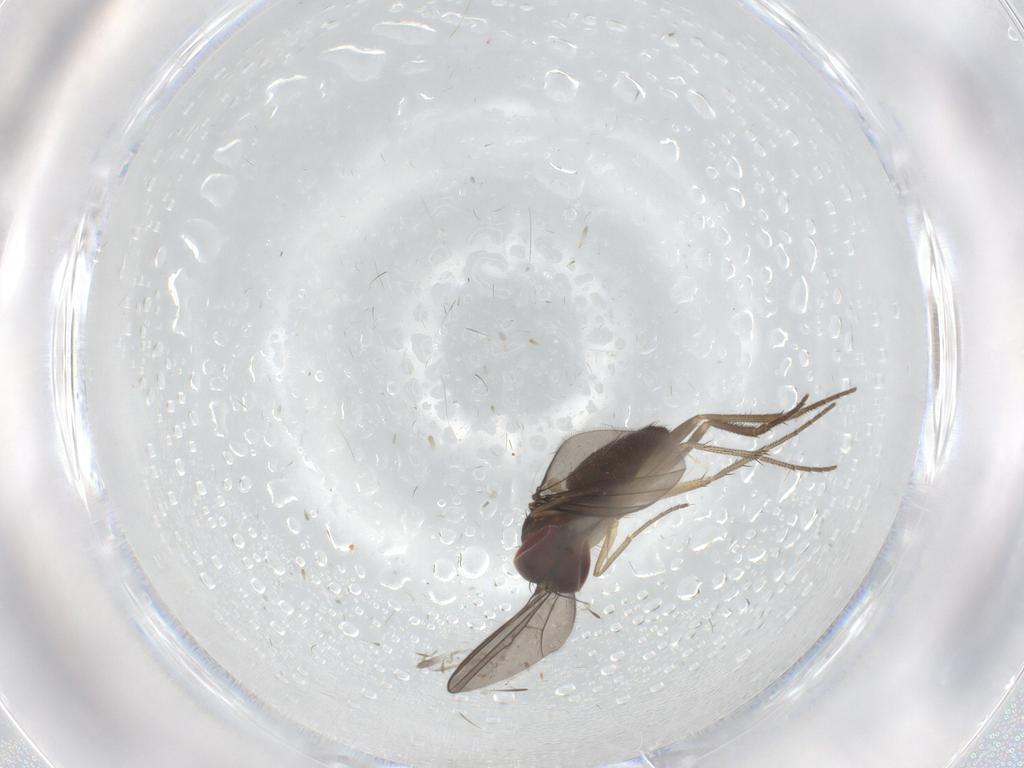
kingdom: Animalia
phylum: Arthropoda
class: Insecta
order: Diptera
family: Dolichopodidae
